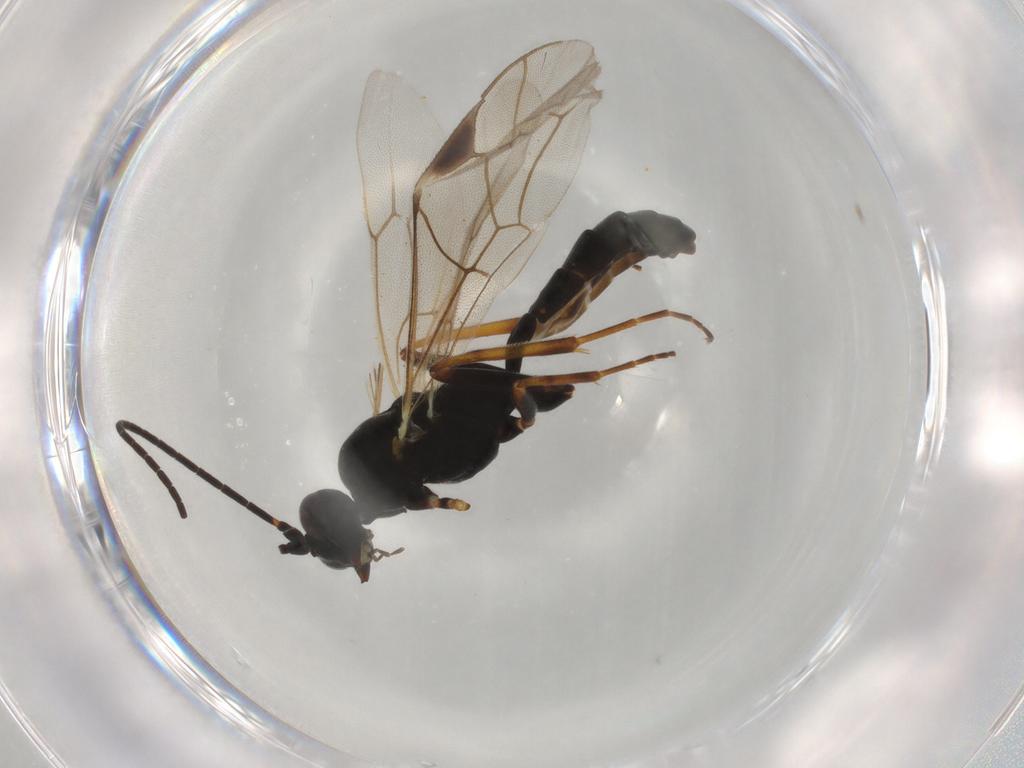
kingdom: Animalia
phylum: Arthropoda
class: Insecta
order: Hymenoptera
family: Ichneumonidae
